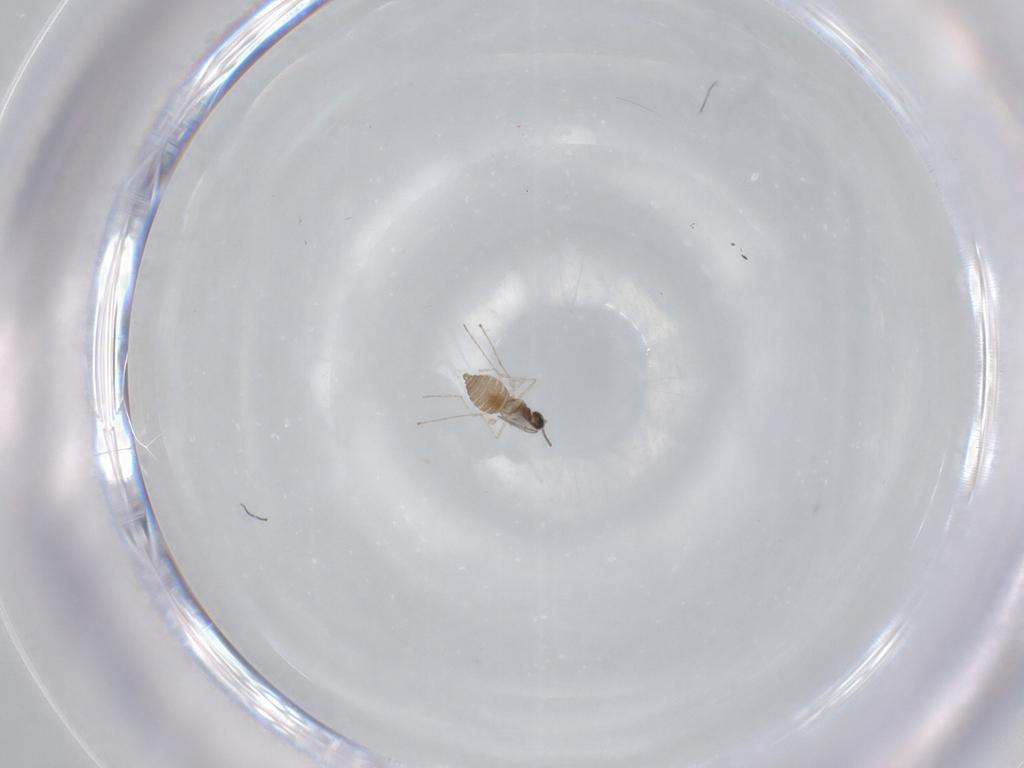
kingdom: Animalia
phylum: Arthropoda
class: Insecta
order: Diptera
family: Cecidomyiidae
